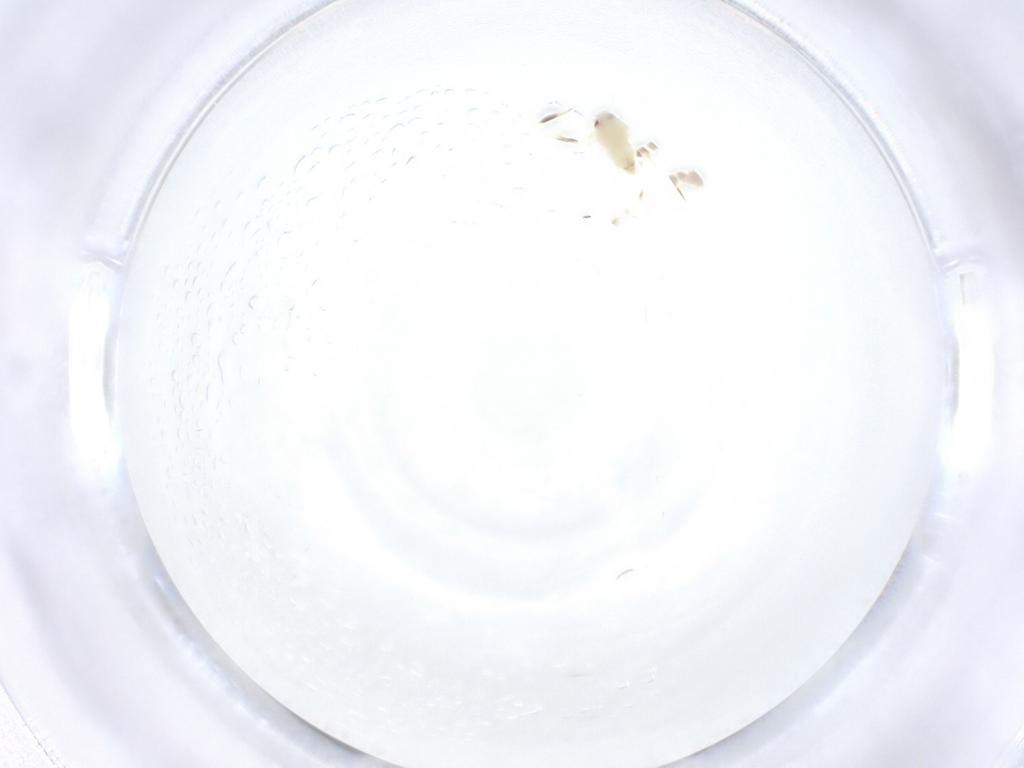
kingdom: Animalia
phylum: Arthropoda
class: Insecta
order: Hemiptera
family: Aleyrodidae
